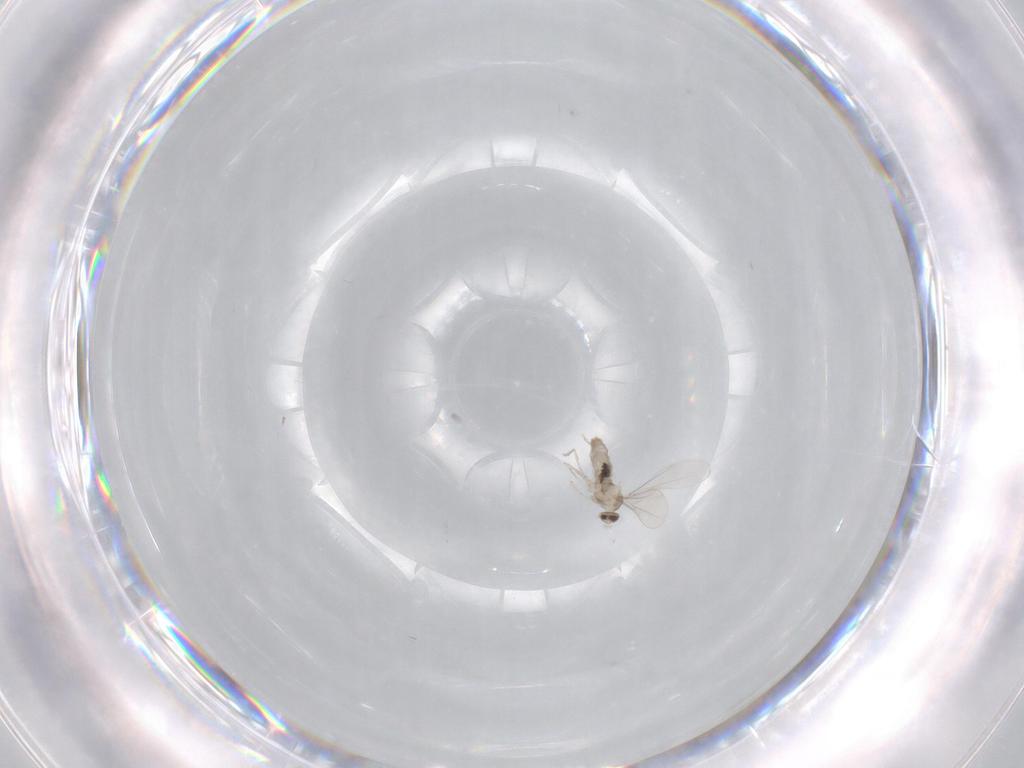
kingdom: Animalia
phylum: Arthropoda
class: Insecta
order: Diptera
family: Cecidomyiidae
